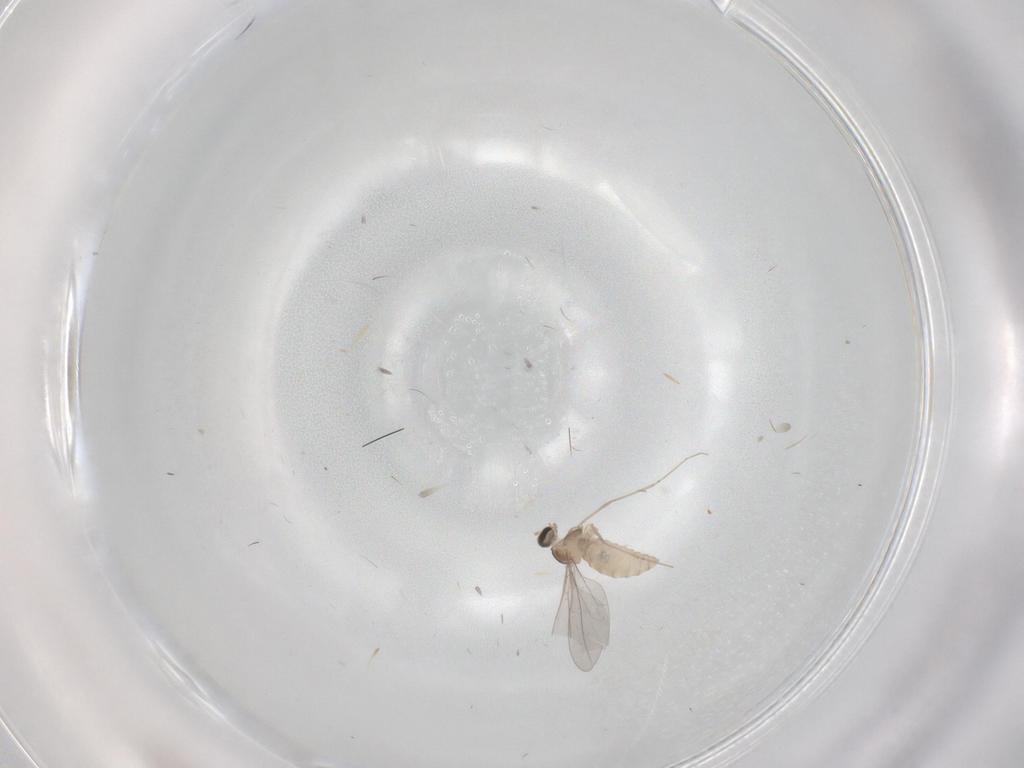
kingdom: Animalia
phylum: Arthropoda
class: Insecta
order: Diptera
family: Cecidomyiidae
